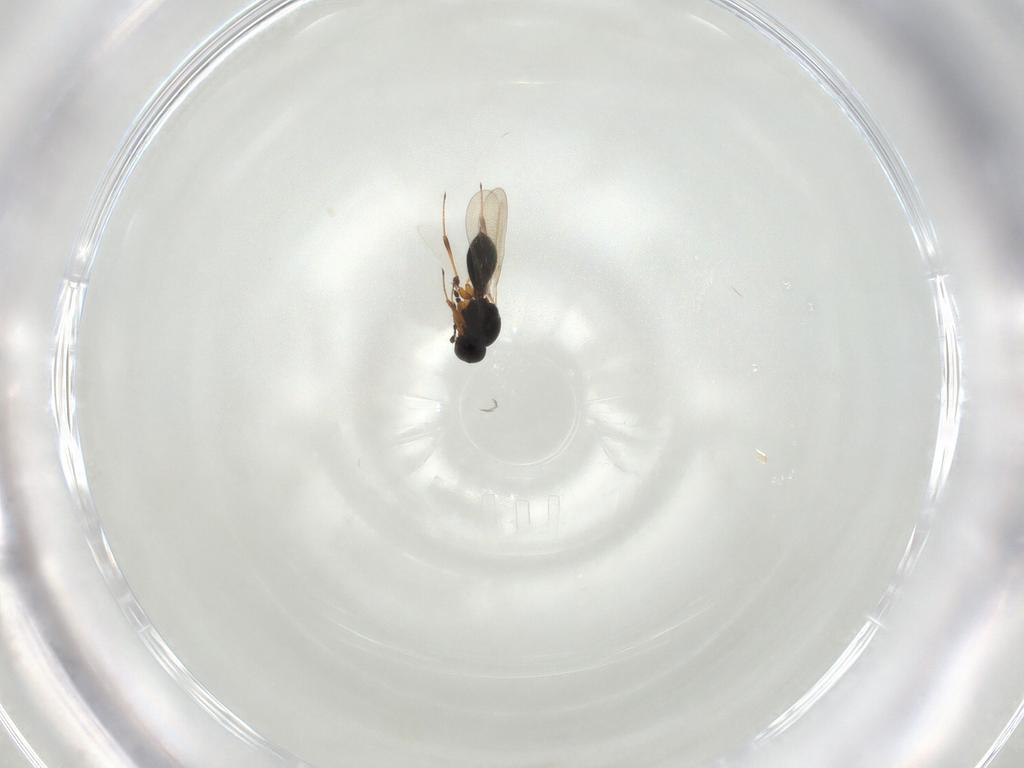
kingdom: Animalia
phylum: Arthropoda
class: Insecta
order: Hymenoptera
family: Platygastridae
